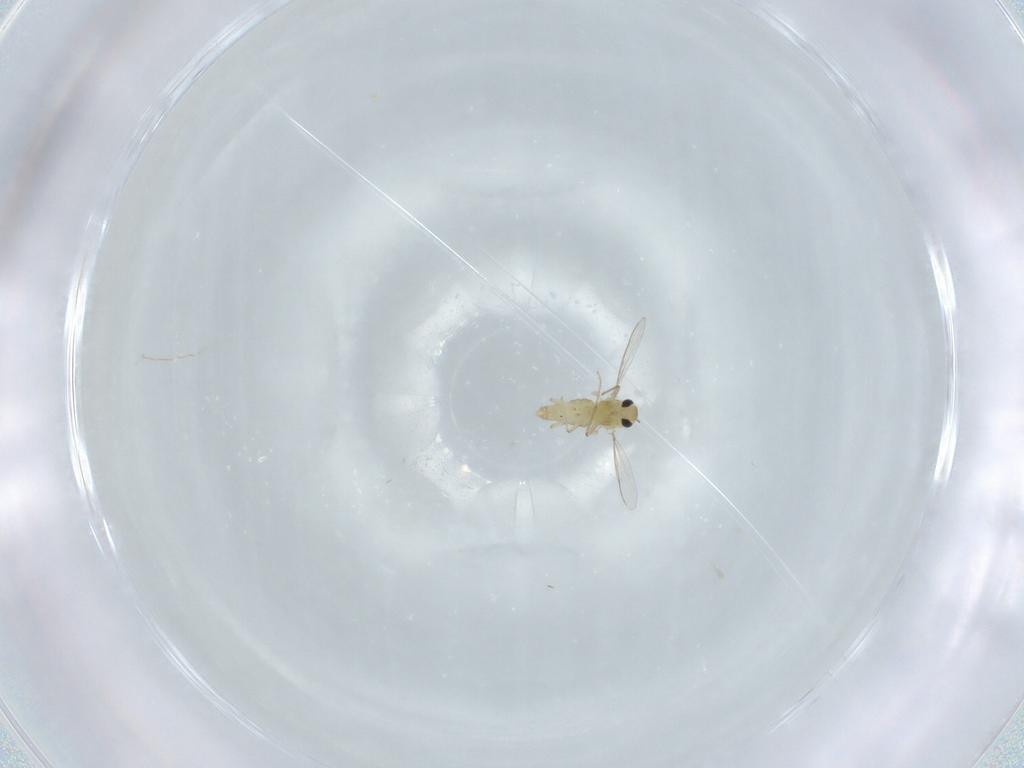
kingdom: Animalia
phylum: Arthropoda
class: Insecta
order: Diptera
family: Chironomidae
